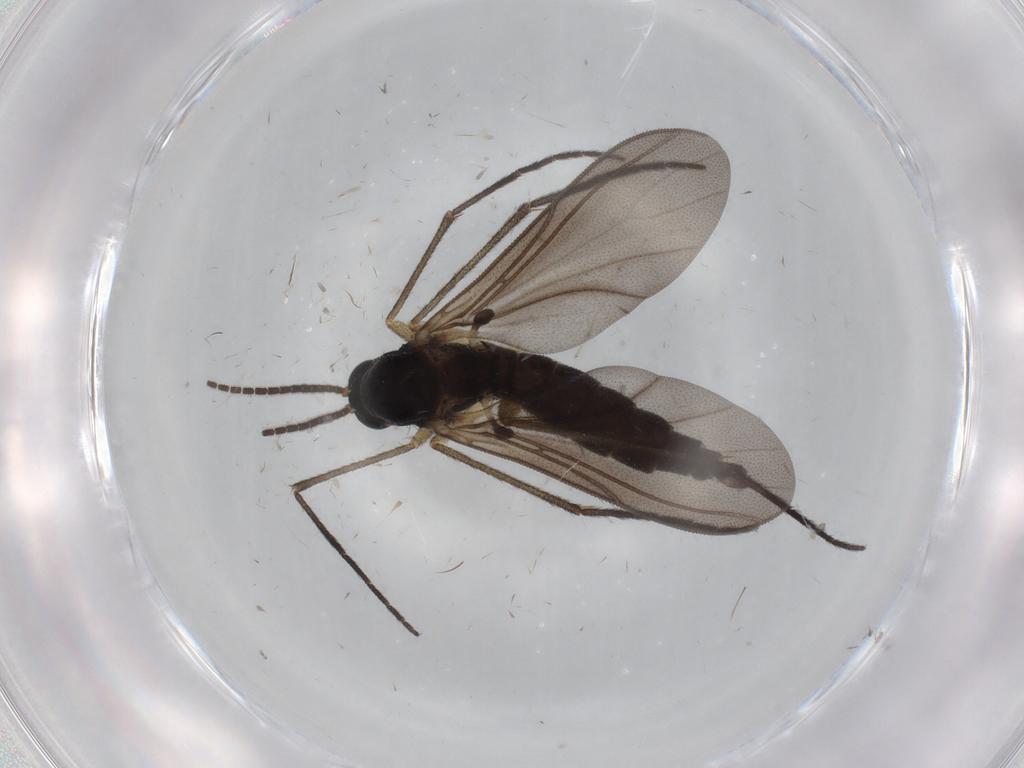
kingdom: Animalia
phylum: Arthropoda
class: Insecta
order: Diptera
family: Sciaridae
